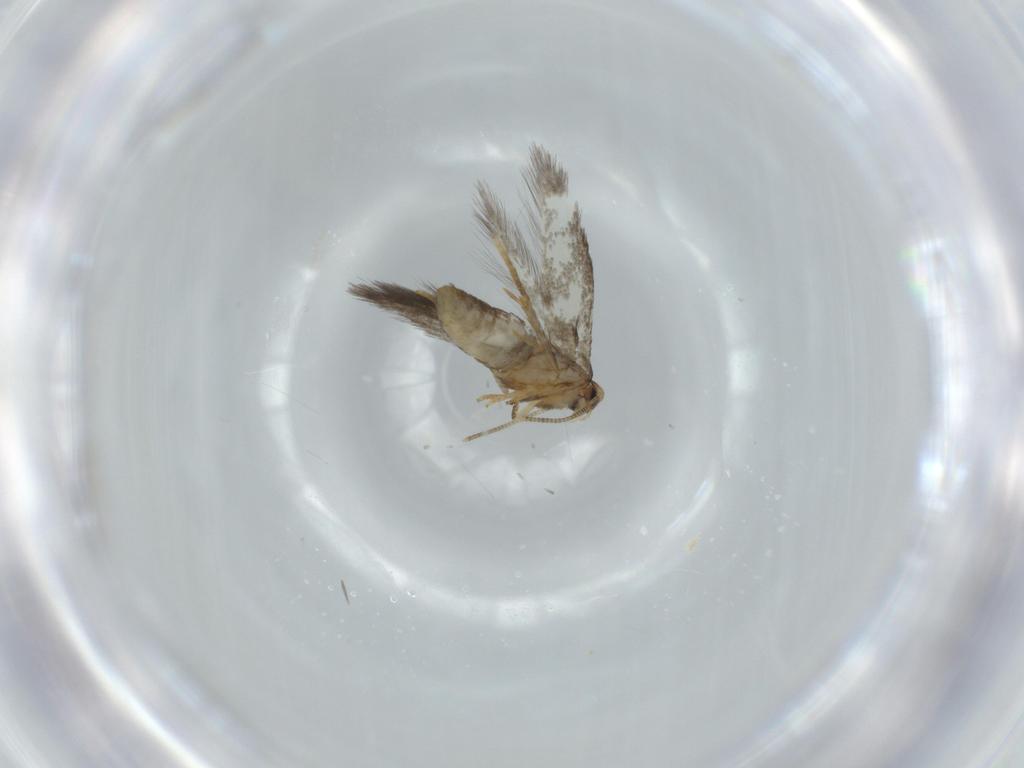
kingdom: Animalia
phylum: Arthropoda
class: Insecta
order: Lepidoptera
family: Nepticulidae
